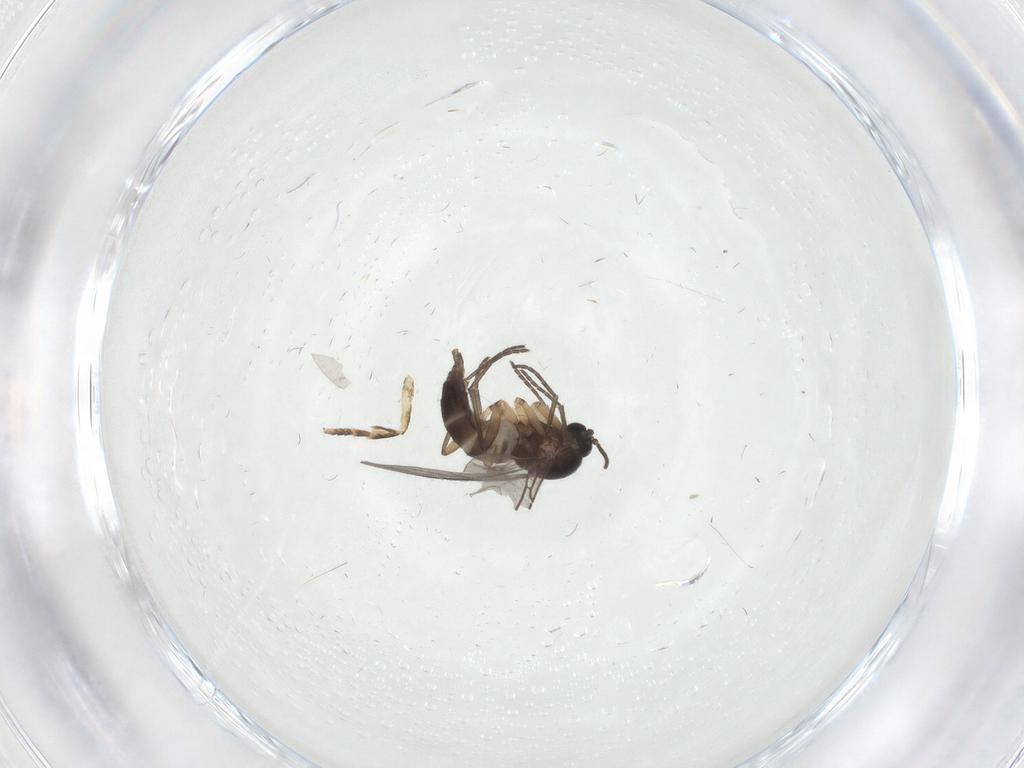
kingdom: Animalia
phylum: Arthropoda
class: Insecta
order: Diptera
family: Sciaridae
